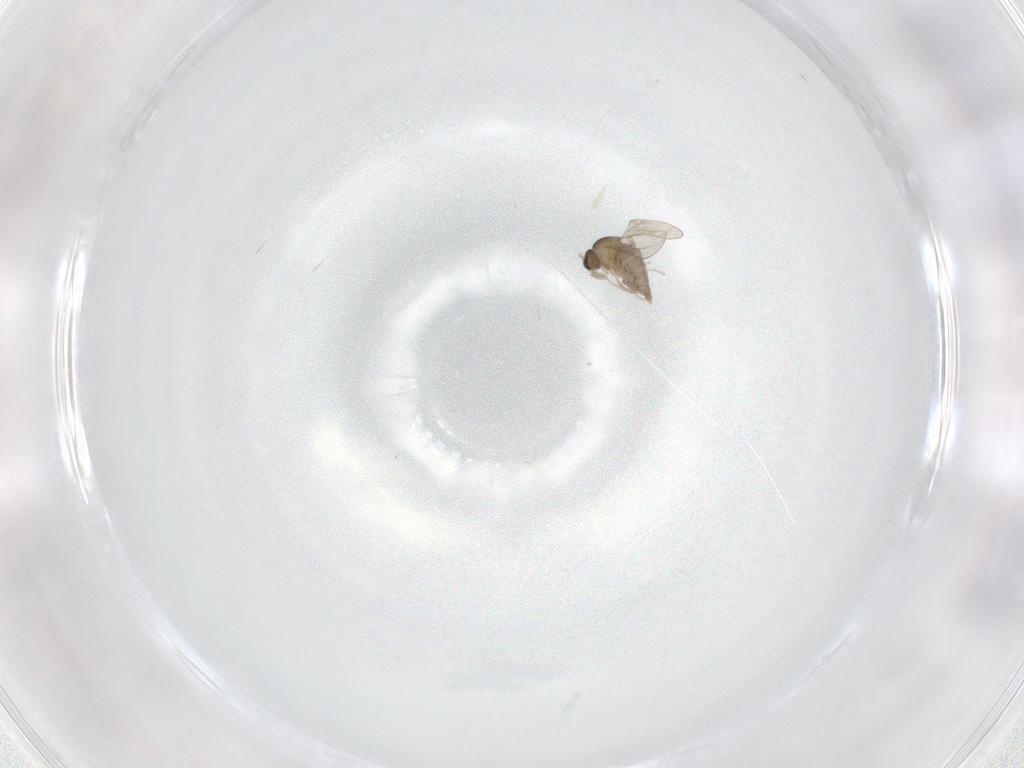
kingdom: Animalia
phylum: Arthropoda
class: Insecta
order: Diptera
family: Cecidomyiidae
